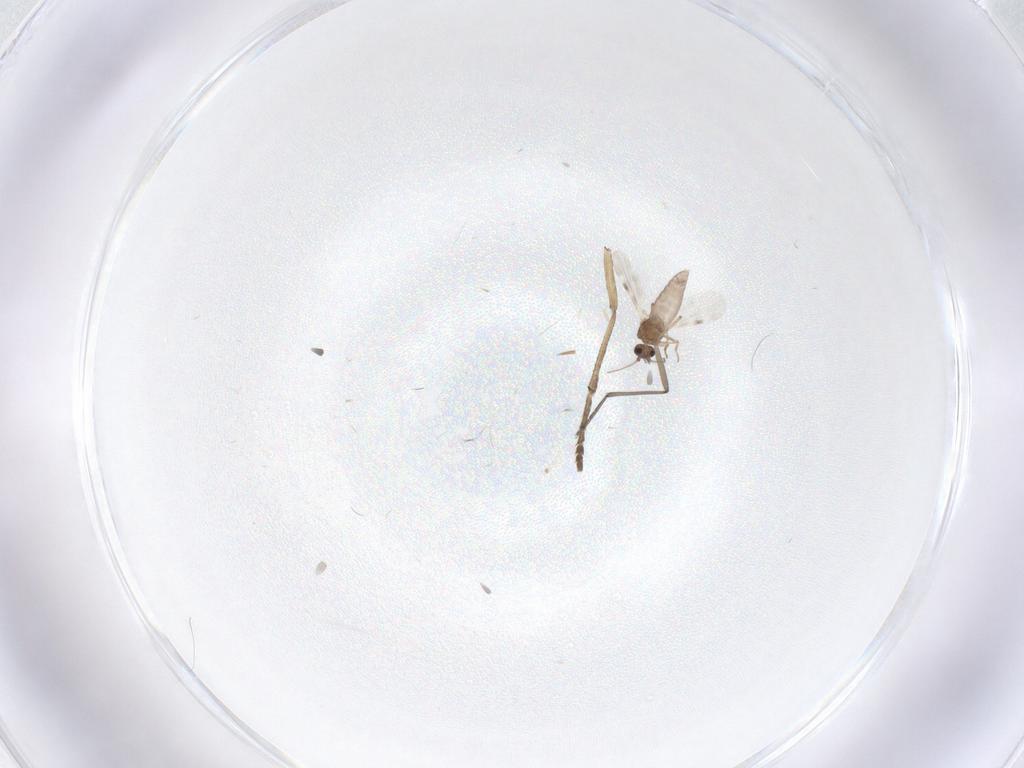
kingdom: Animalia
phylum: Arthropoda
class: Insecta
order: Diptera
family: Psychodidae
